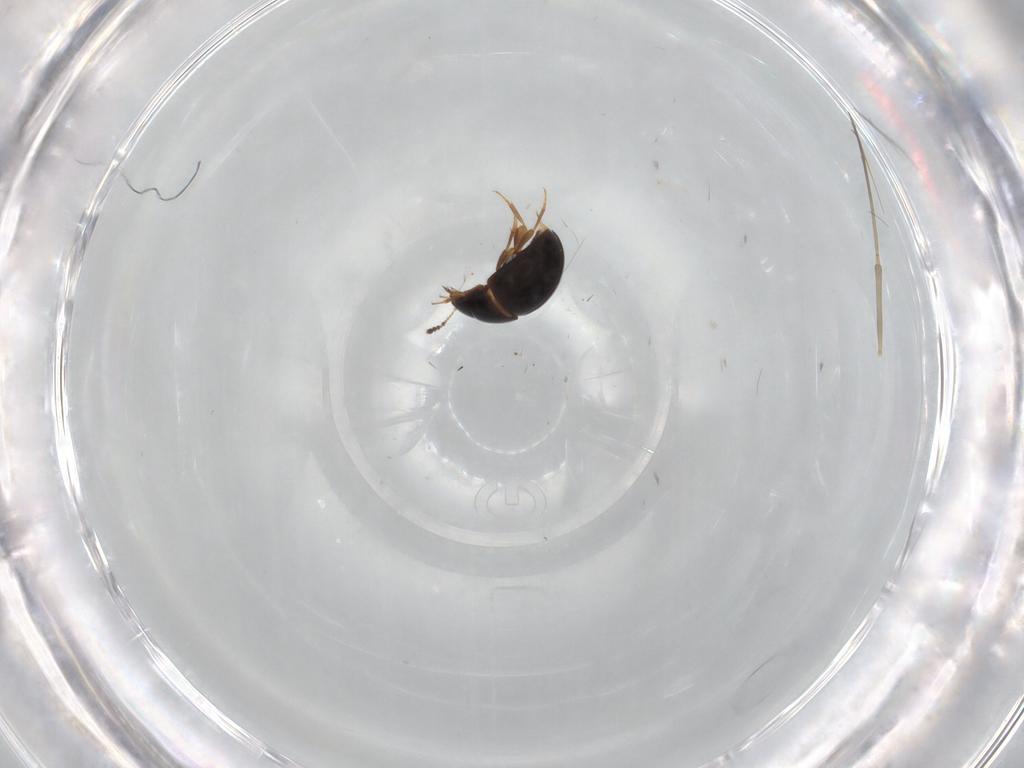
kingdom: Animalia
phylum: Arthropoda
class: Insecta
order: Coleoptera
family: Leiodidae
